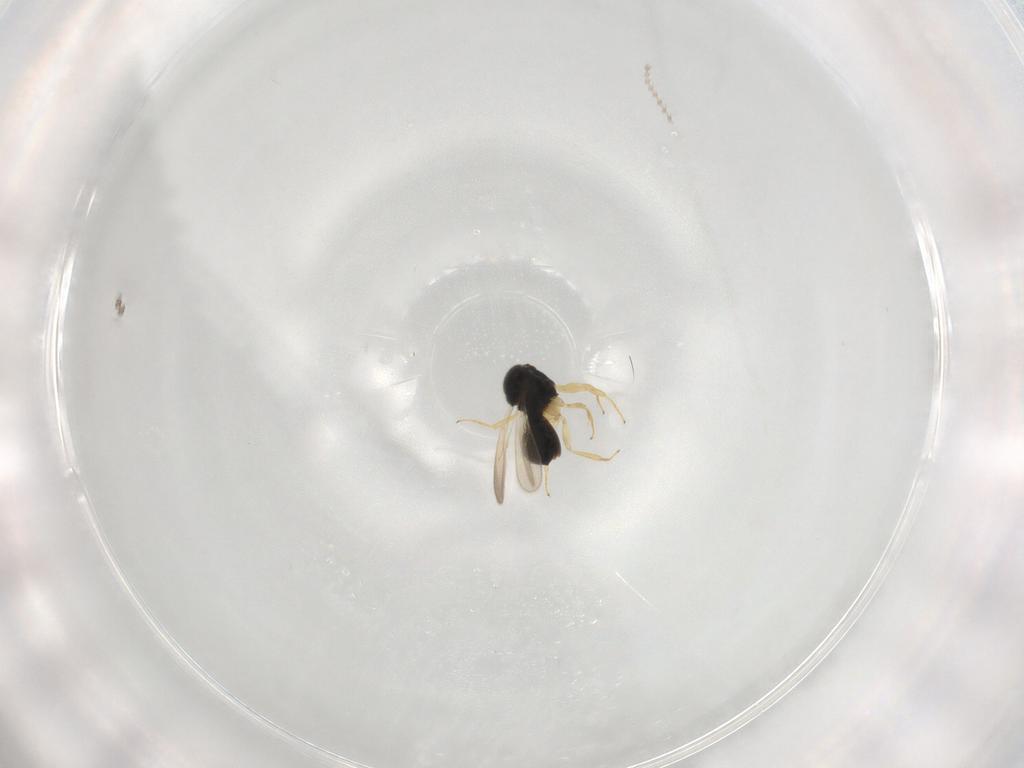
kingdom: Animalia
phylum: Arthropoda
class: Insecta
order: Hymenoptera
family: Scelionidae
